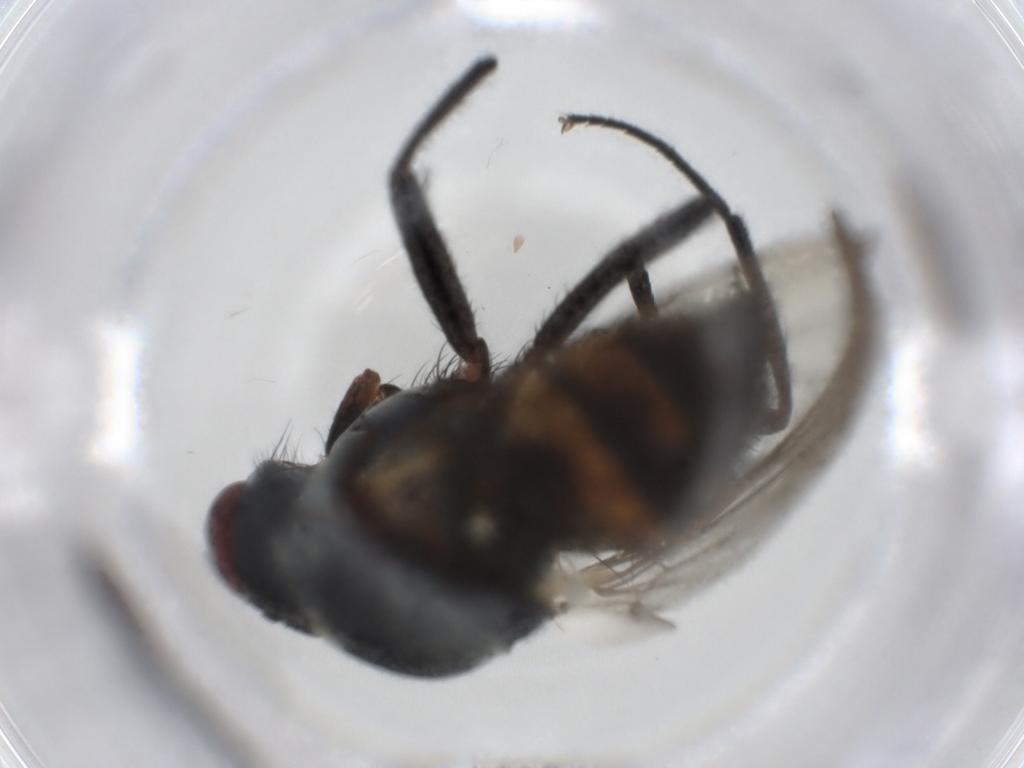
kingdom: Animalia
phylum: Arthropoda
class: Insecta
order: Diptera
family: Anthomyiidae
